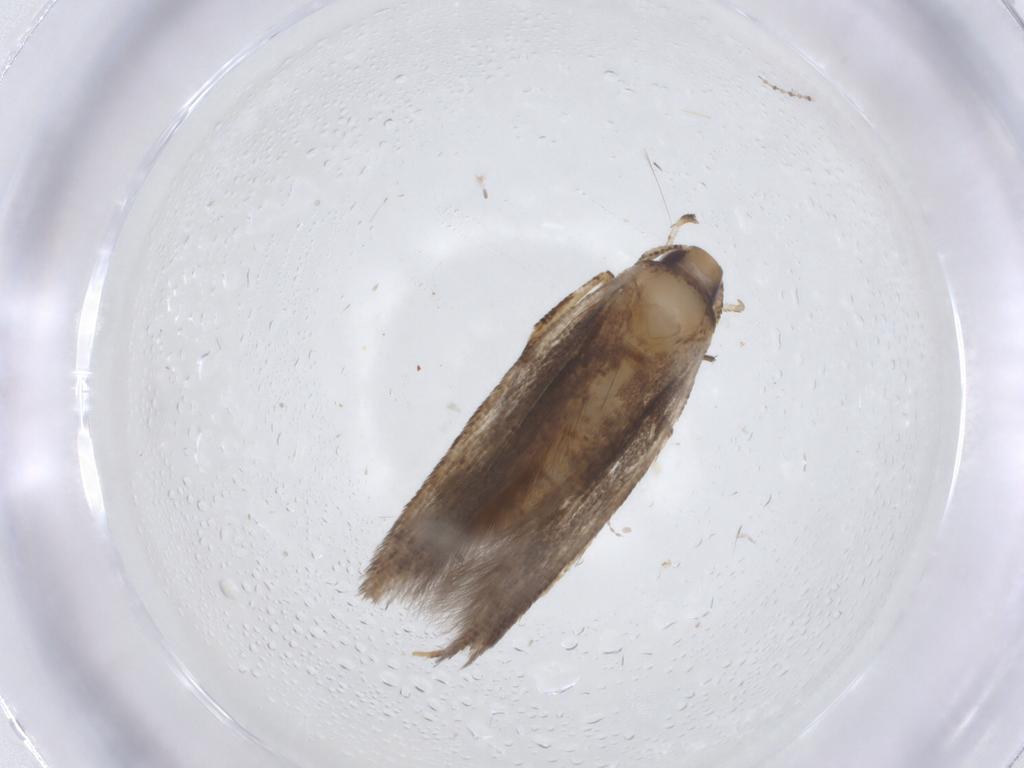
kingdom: Animalia
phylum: Arthropoda
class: Insecta
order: Lepidoptera
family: Cosmopterigidae
